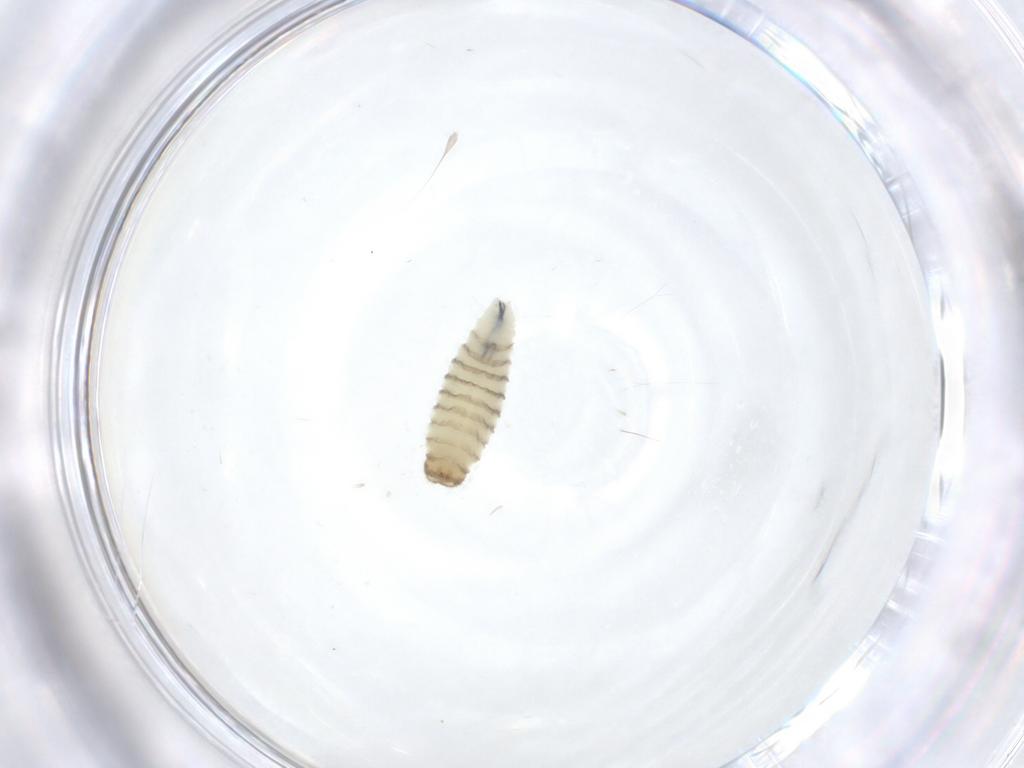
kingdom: Animalia
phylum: Arthropoda
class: Insecta
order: Diptera
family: Sarcophagidae
